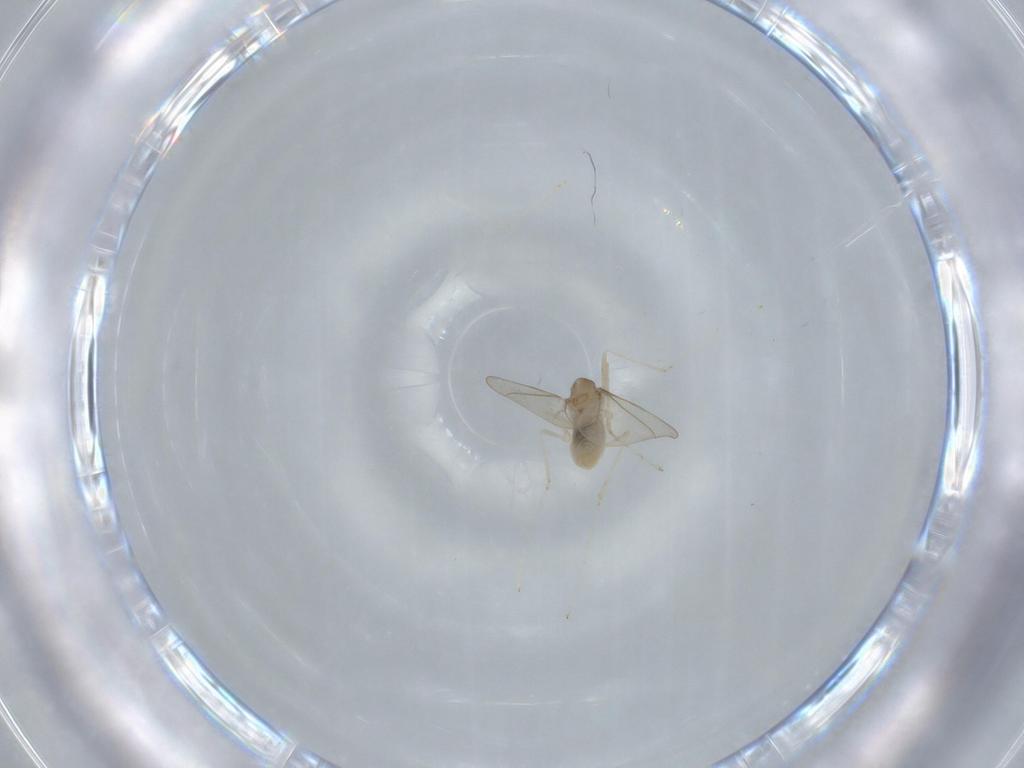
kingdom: Animalia
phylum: Arthropoda
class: Insecta
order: Diptera
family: Cecidomyiidae
